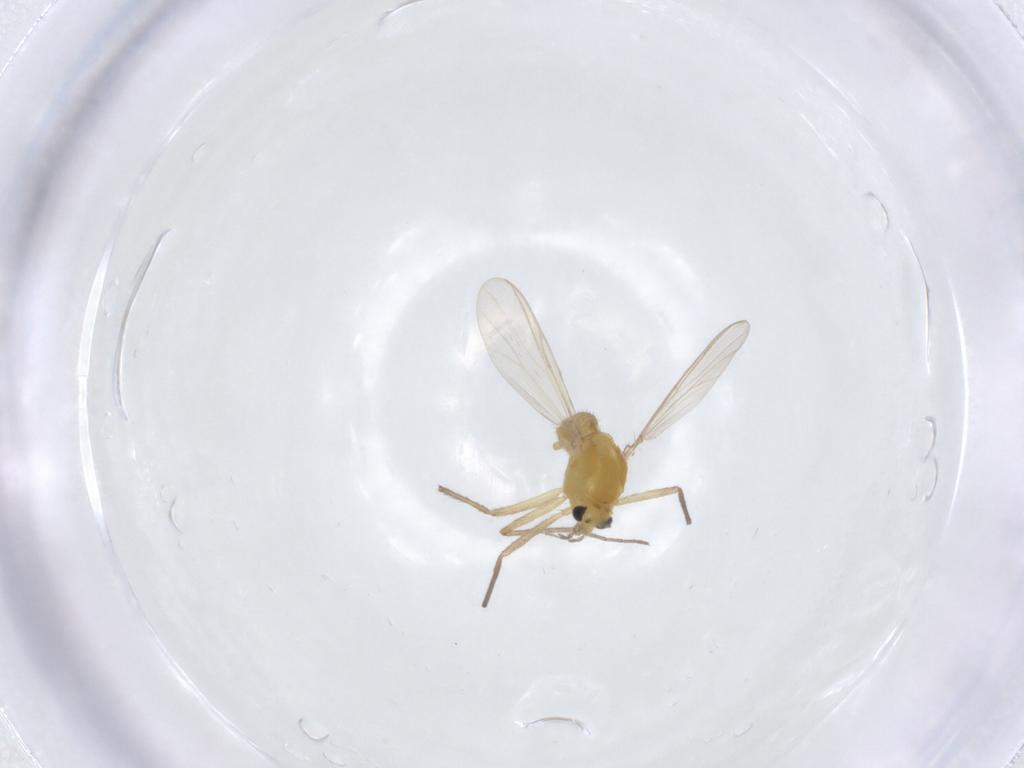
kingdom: Animalia
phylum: Arthropoda
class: Insecta
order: Diptera
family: Chironomidae
